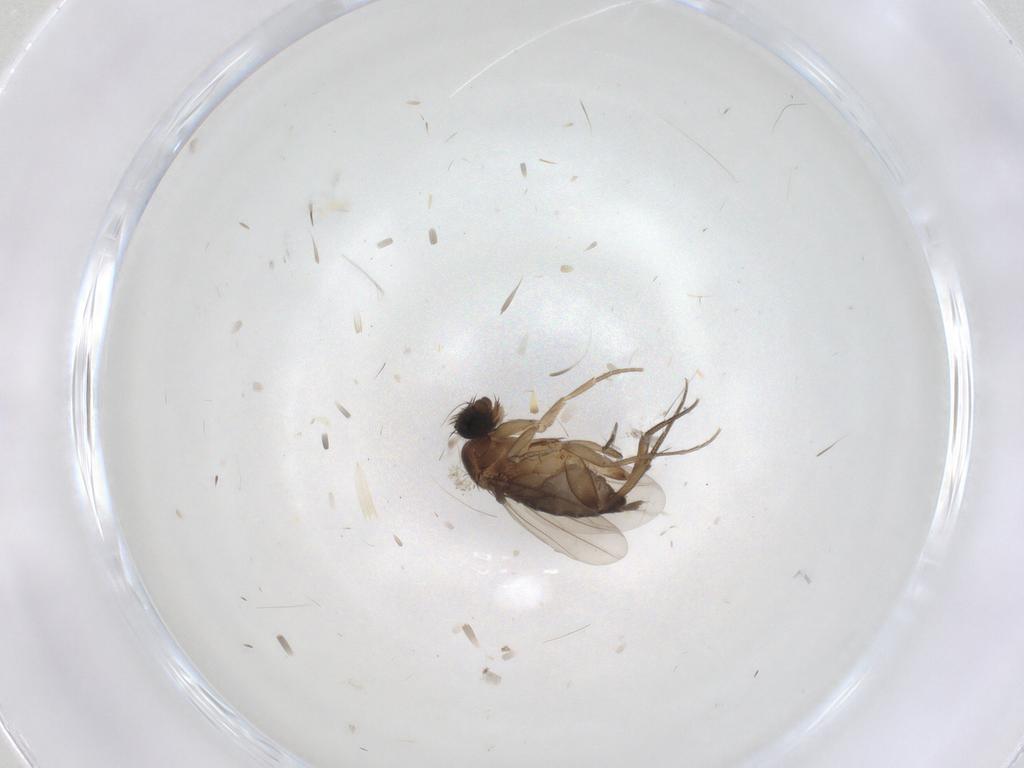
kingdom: Animalia
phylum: Arthropoda
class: Insecta
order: Diptera
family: Phoridae
